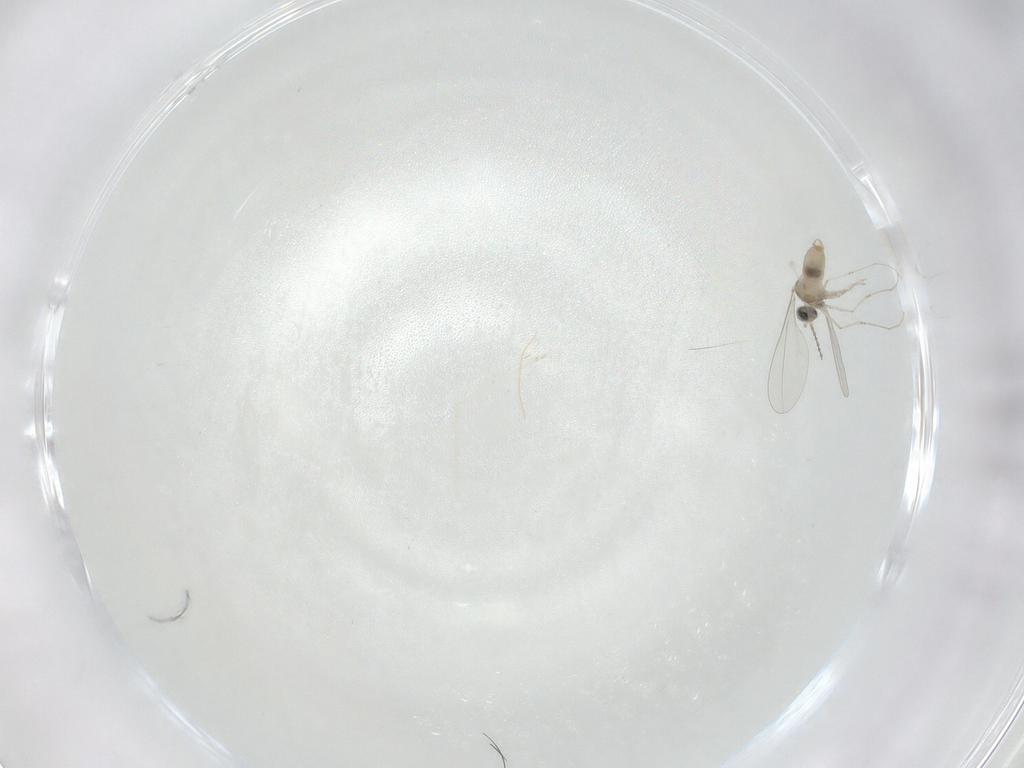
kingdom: Animalia
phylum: Arthropoda
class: Insecta
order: Diptera
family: Cecidomyiidae
